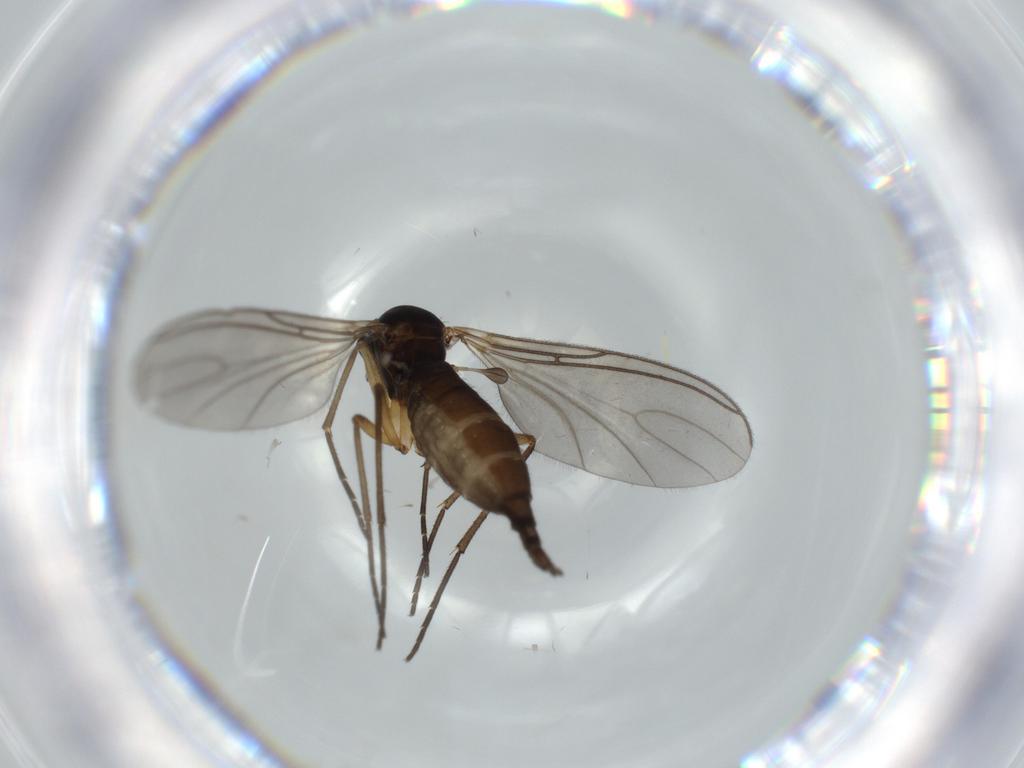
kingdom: Animalia
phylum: Arthropoda
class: Insecta
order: Diptera
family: Sciaridae
